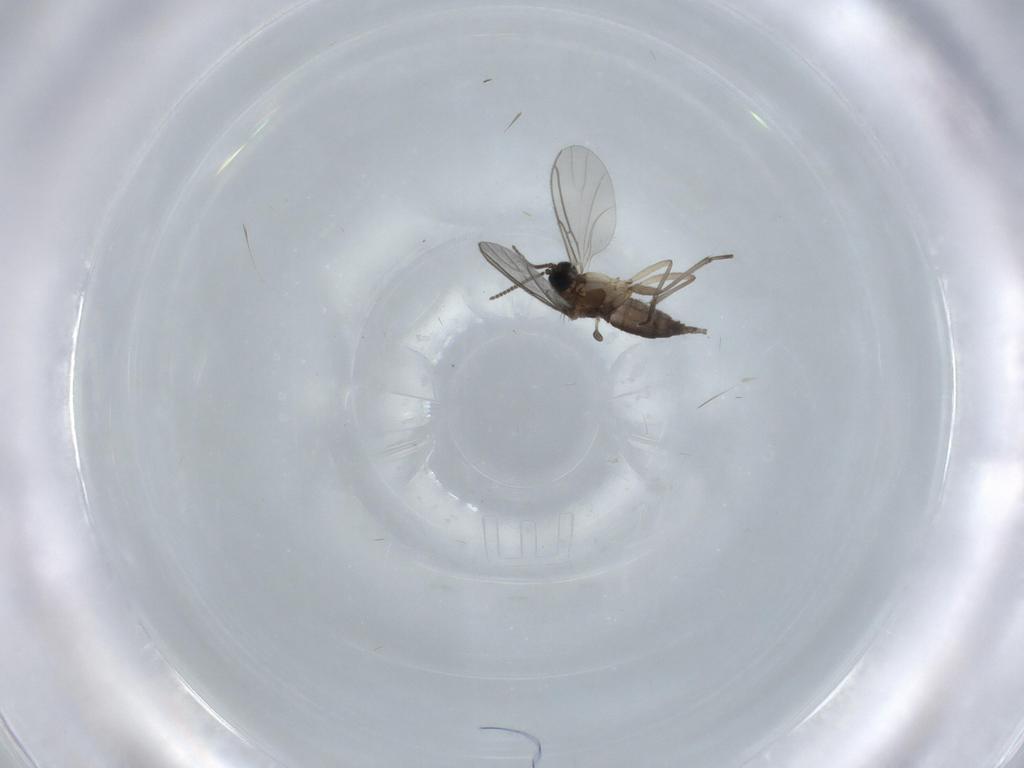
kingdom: Animalia
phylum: Arthropoda
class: Insecta
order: Diptera
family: Sciaridae
